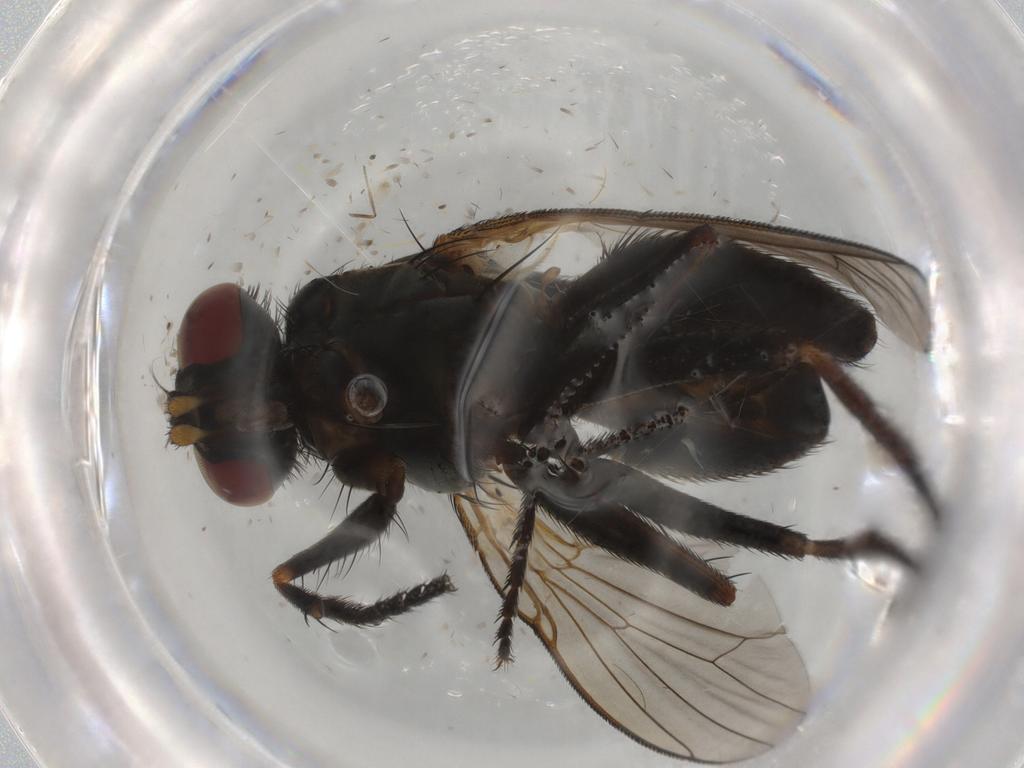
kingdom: Animalia
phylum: Arthropoda
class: Insecta
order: Diptera
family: Muscidae
